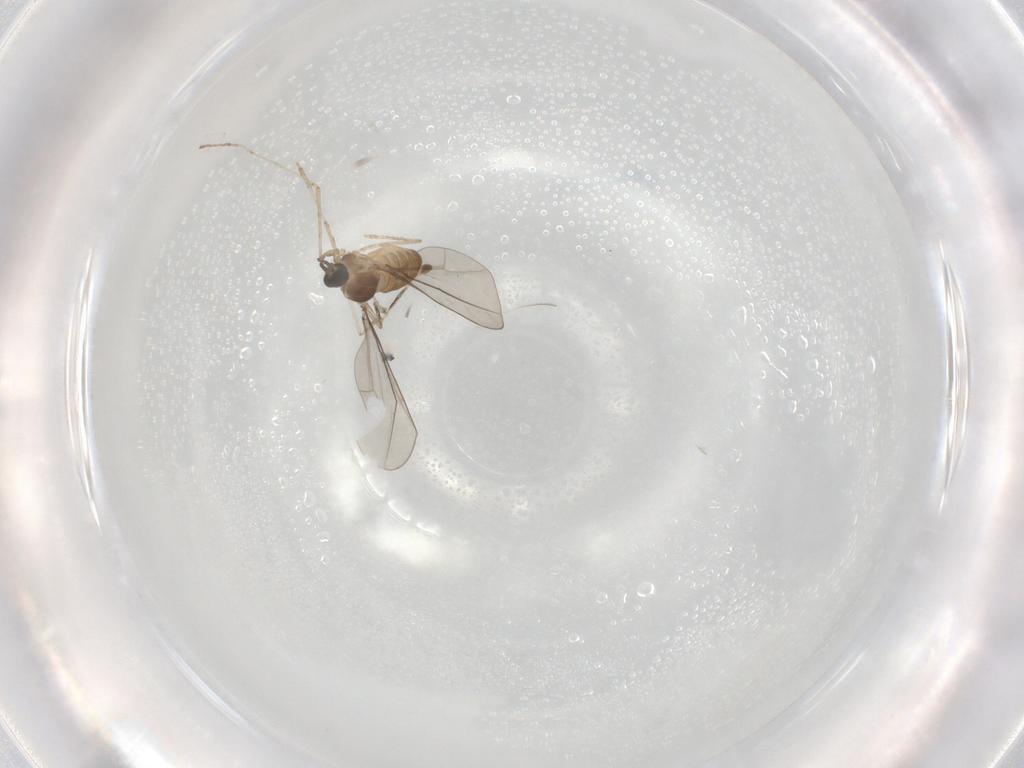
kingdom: Animalia
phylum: Arthropoda
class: Insecta
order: Diptera
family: Cecidomyiidae
